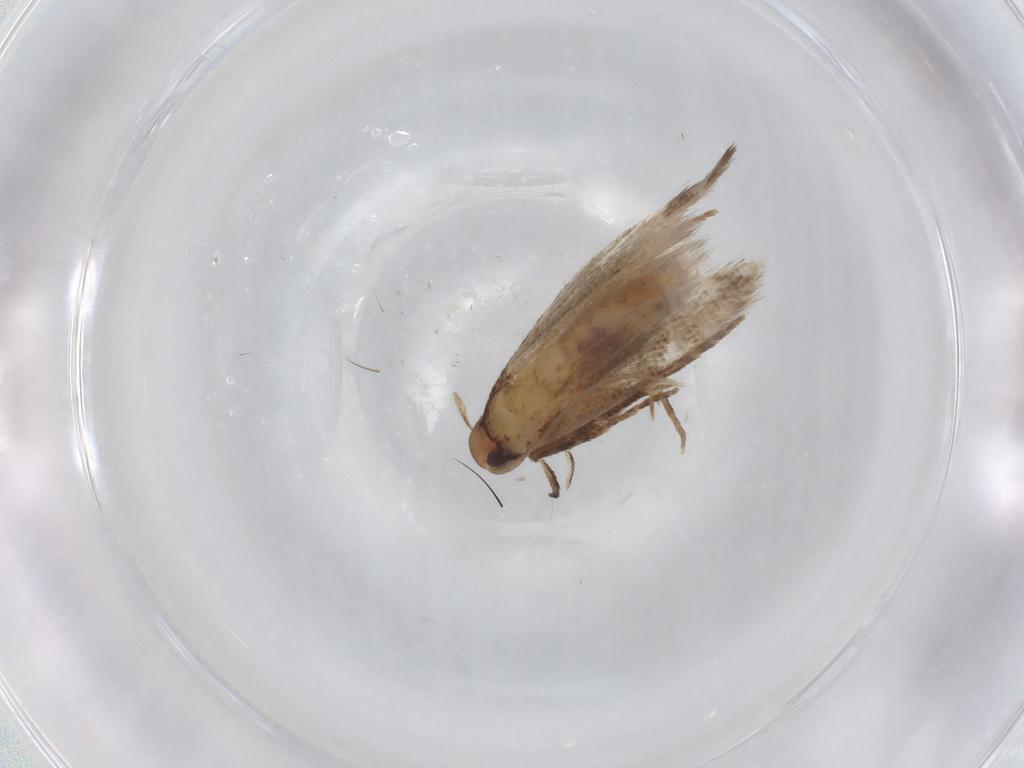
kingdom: Animalia
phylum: Arthropoda
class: Insecta
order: Lepidoptera
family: Cosmopterigidae
